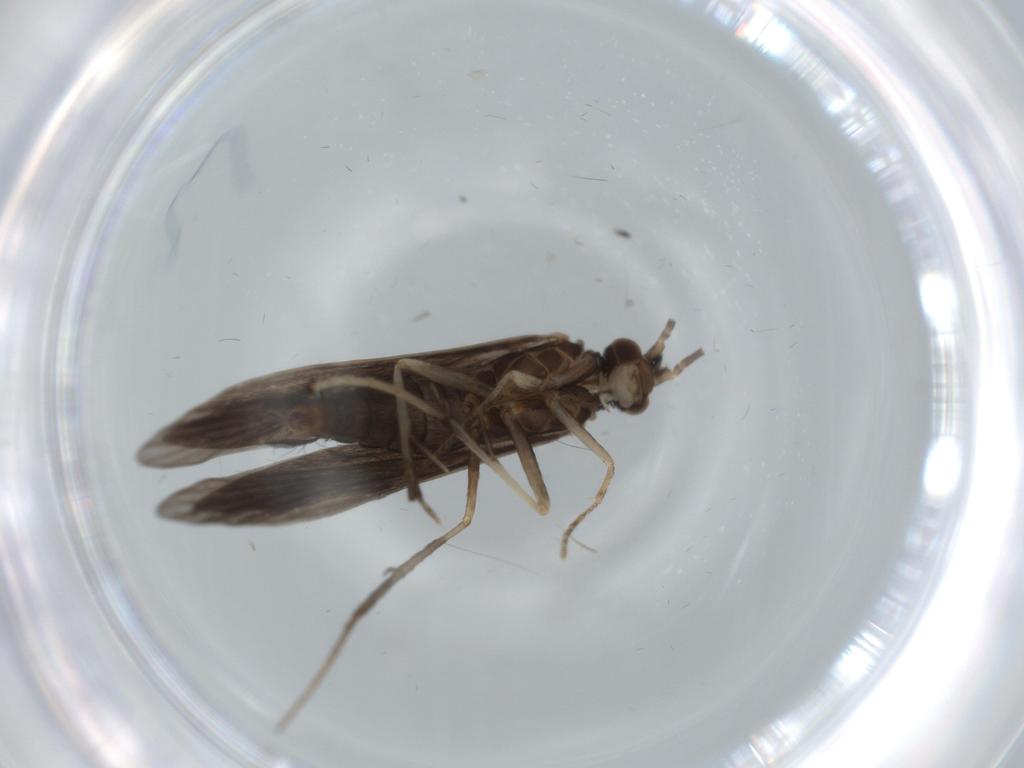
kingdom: Animalia
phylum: Arthropoda
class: Insecta
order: Trichoptera
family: Xiphocentronidae
